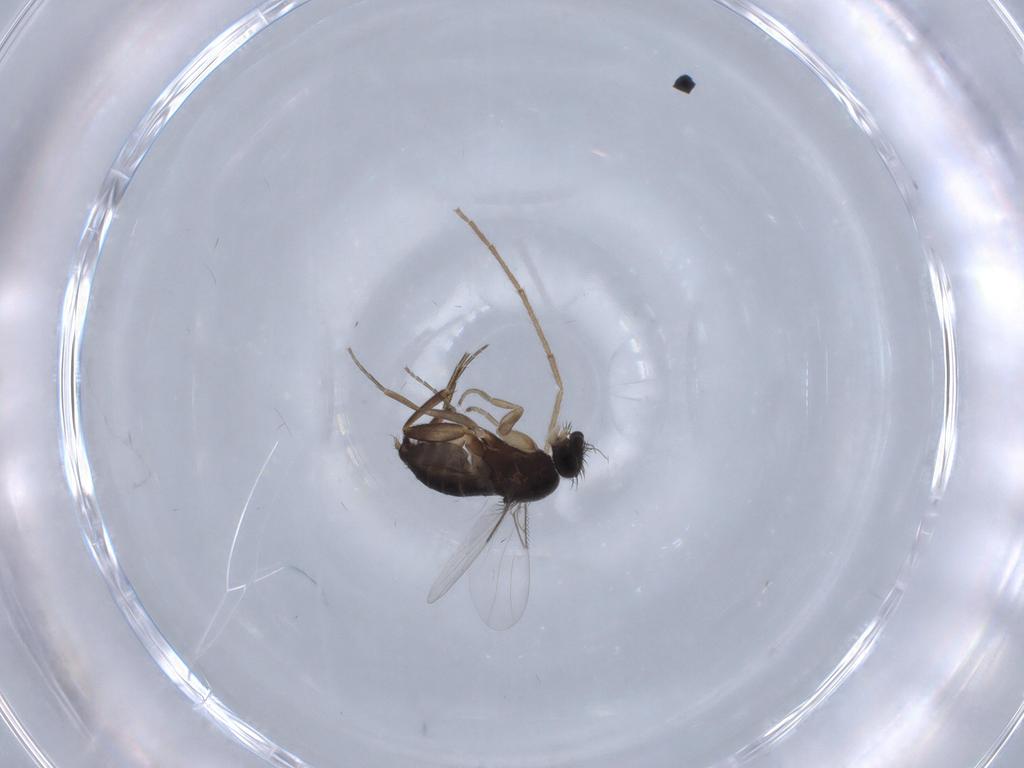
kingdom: Animalia
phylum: Arthropoda
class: Insecta
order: Diptera
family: Phoridae
